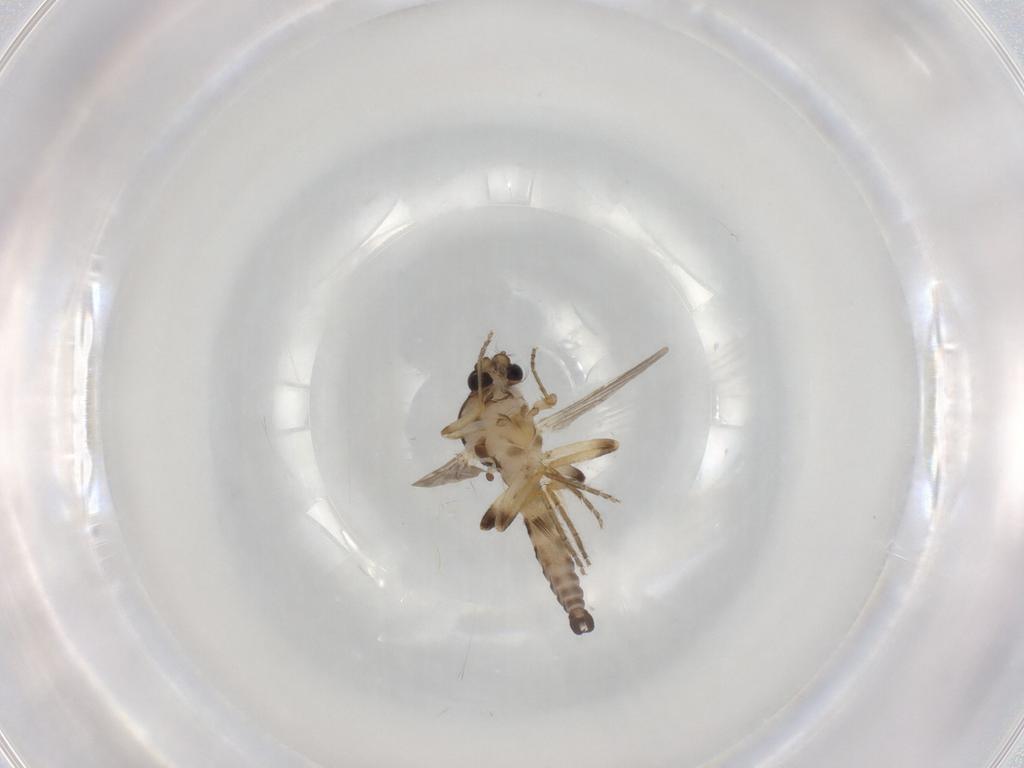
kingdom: Animalia
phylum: Arthropoda
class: Insecta
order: Diptera
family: Ceratopogonidae
